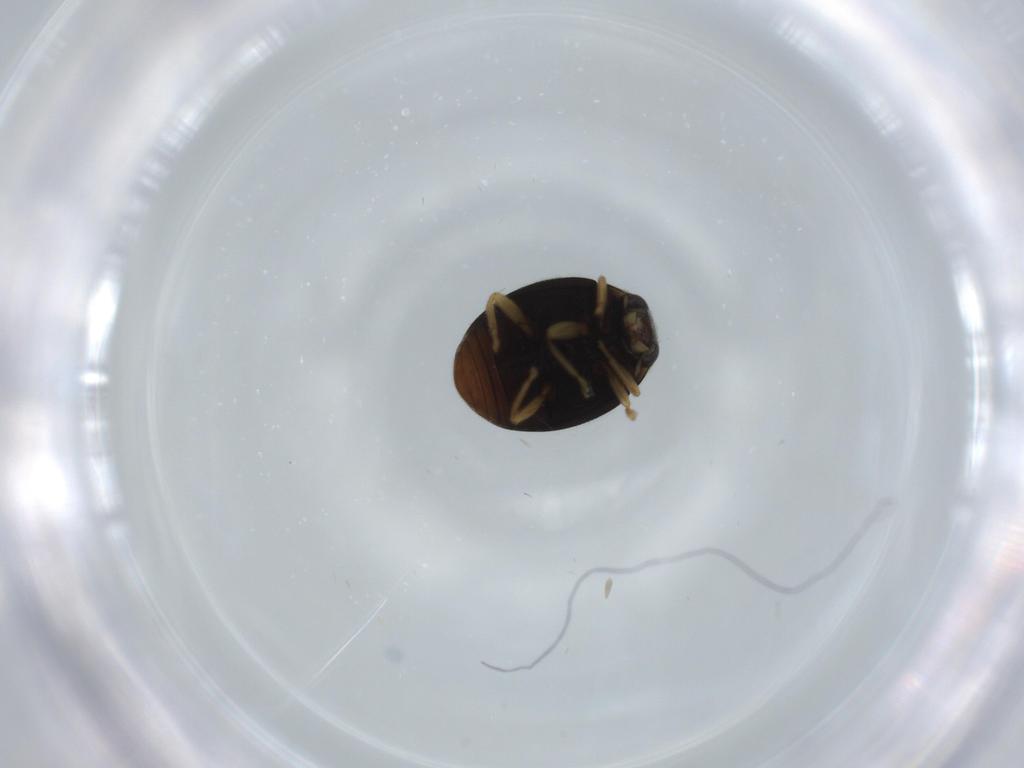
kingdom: Animalia
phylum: Arthropoda
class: Insecta
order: Coleoptera
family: Coccinellidae
